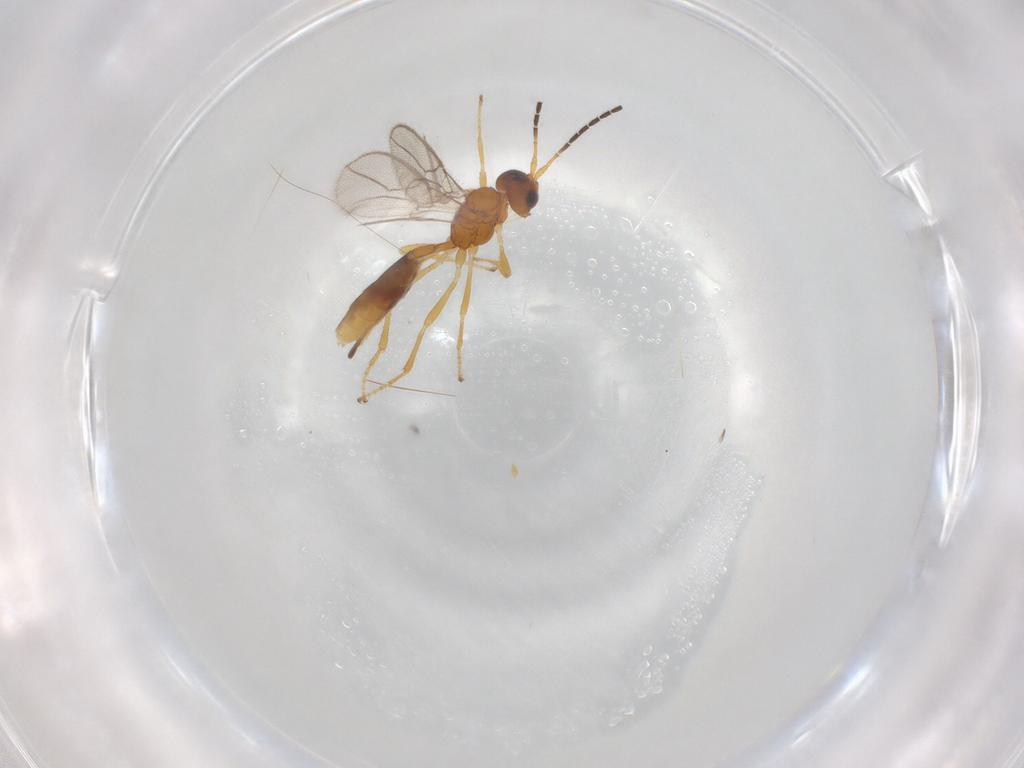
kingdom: Animalia
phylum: Arthropoda
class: Insecta
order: Hymenoptera
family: Braconidae
